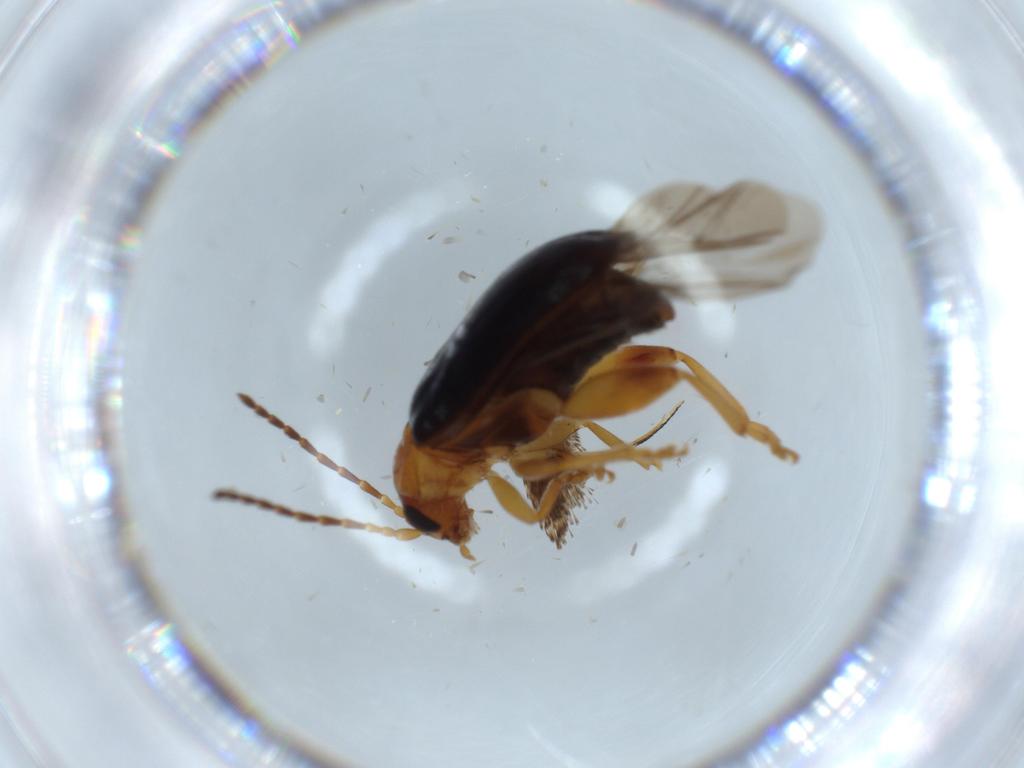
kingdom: Animalia
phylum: Arthropoda
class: Insecta
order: Coleoptera
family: Chrysomelidae
